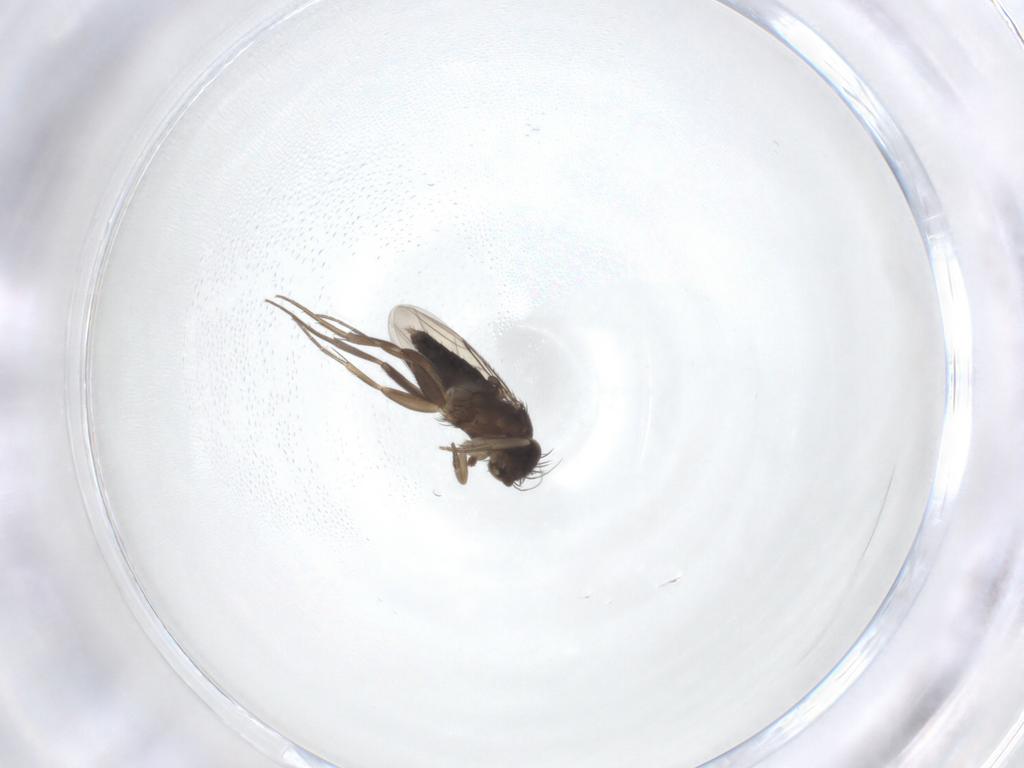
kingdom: Animalia
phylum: Arthropoda
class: Insecta
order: Diptera
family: Phoridae
